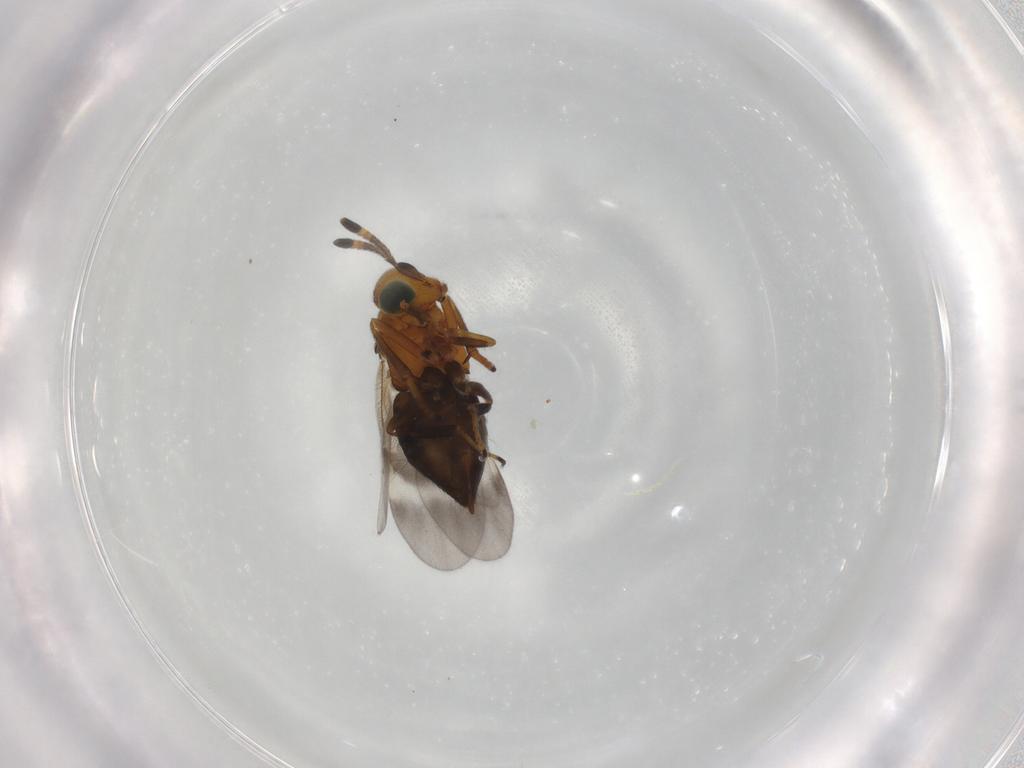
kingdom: Animalia
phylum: Arthropoda
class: Insecta
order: Hymenoptera
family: Encyrtidae
